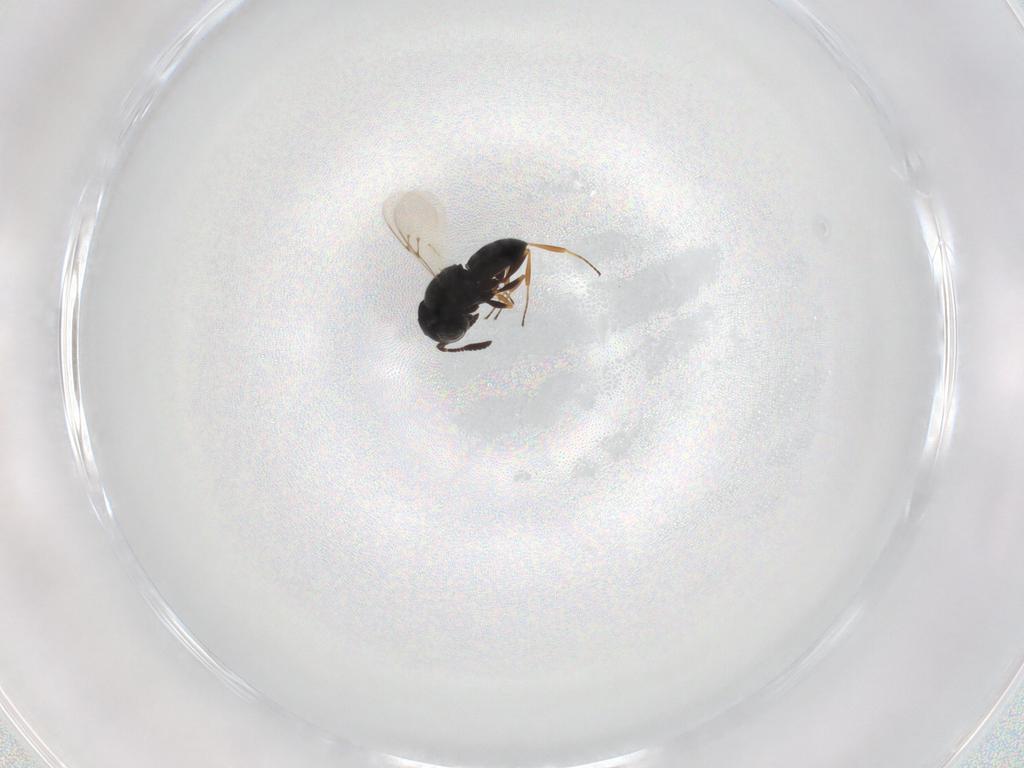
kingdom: Animalia
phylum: Arthropoda
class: Insecta
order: Hymenoptera
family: Scelionidae
